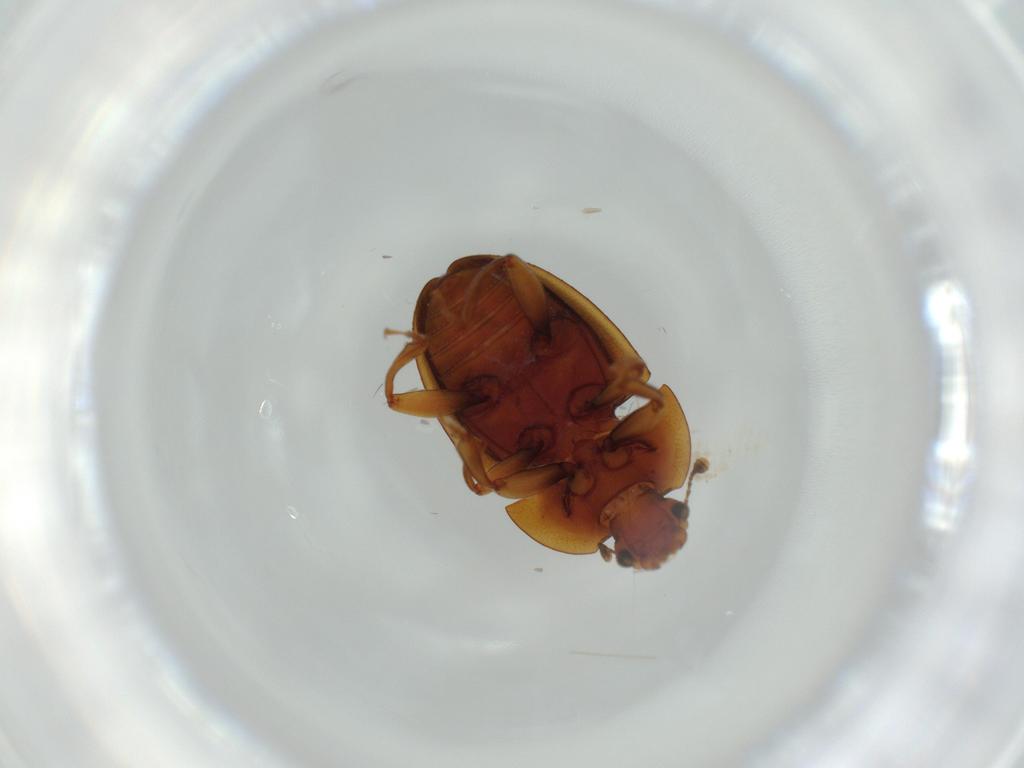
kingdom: Animalia
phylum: Arthropoda
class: Insecta
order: Coleoptera
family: Nitidulidae
